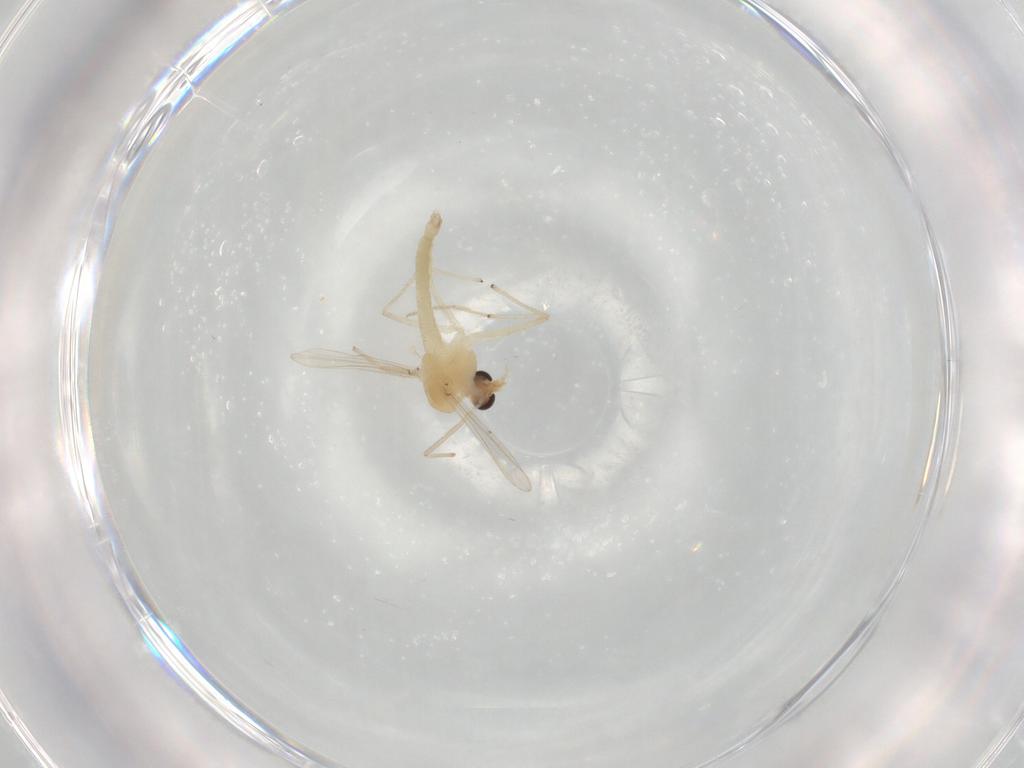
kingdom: Animalia
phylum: Arthropoda
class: Insecta
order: Diptera
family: Chironomidae
